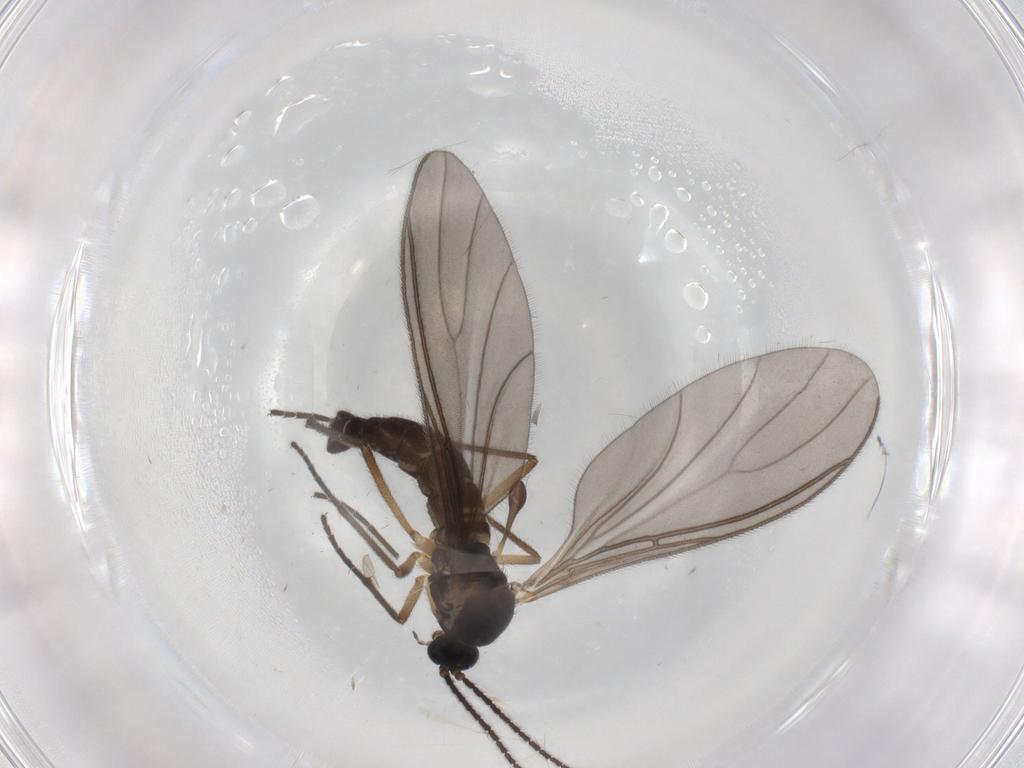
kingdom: Animalia
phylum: Arthropoda
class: Insecta
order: Diptera
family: Sciaridae
